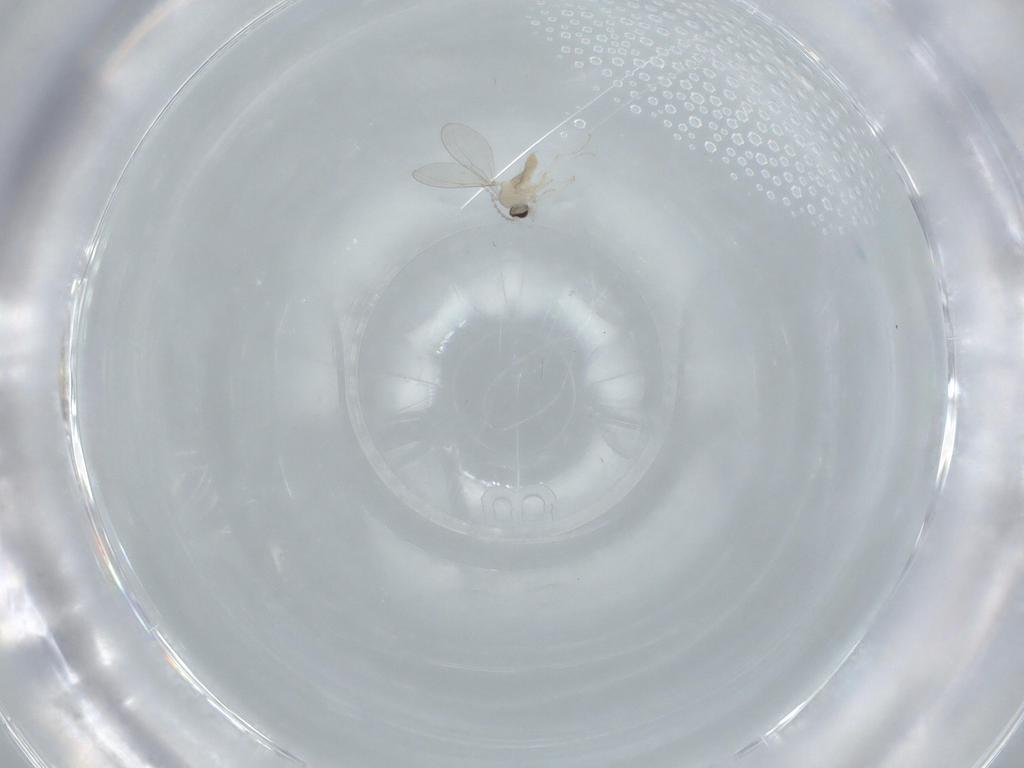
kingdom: Animalia
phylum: Arthropoda
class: Insecta
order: Diptera
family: Cecidomyiidae
